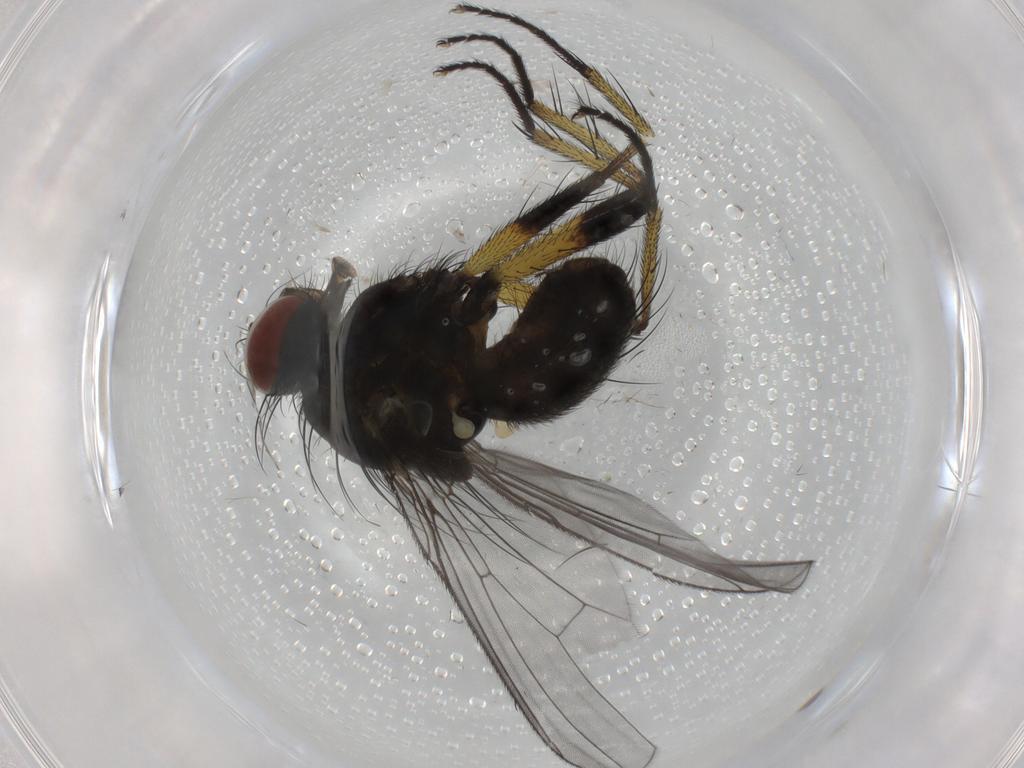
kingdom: Animalia
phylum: Arthropoda
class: Insecta
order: Diptera
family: Muscidae
